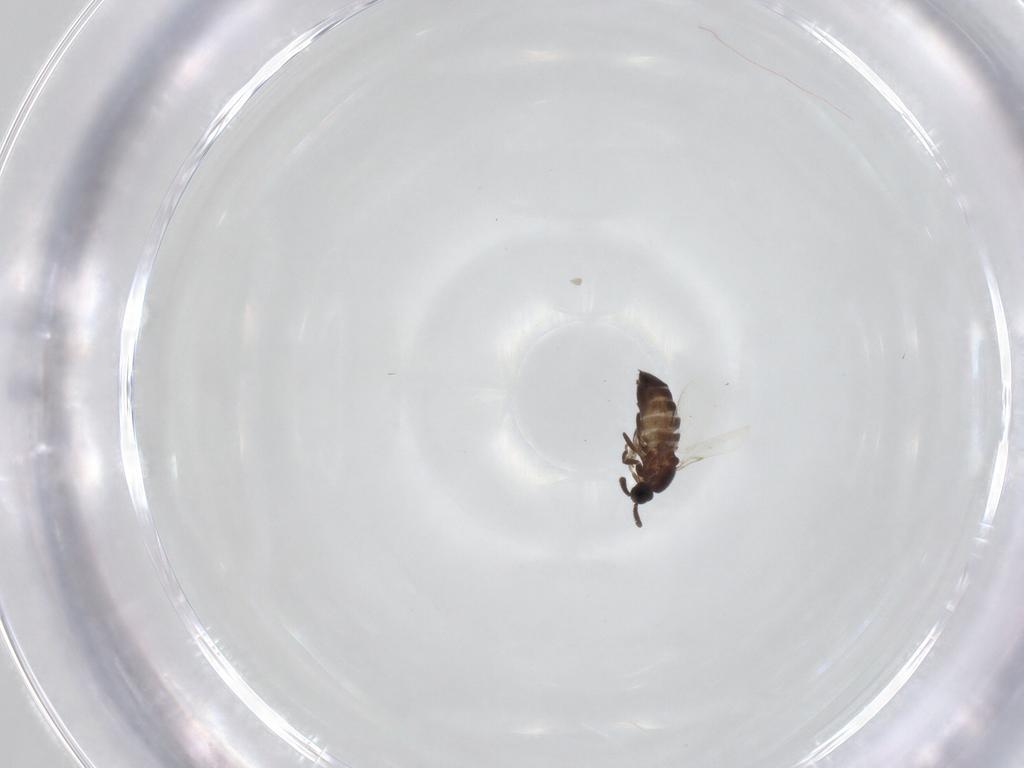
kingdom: Animalia
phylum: Arthropoda
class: Insecta
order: Diptera
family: Scatopsidae
